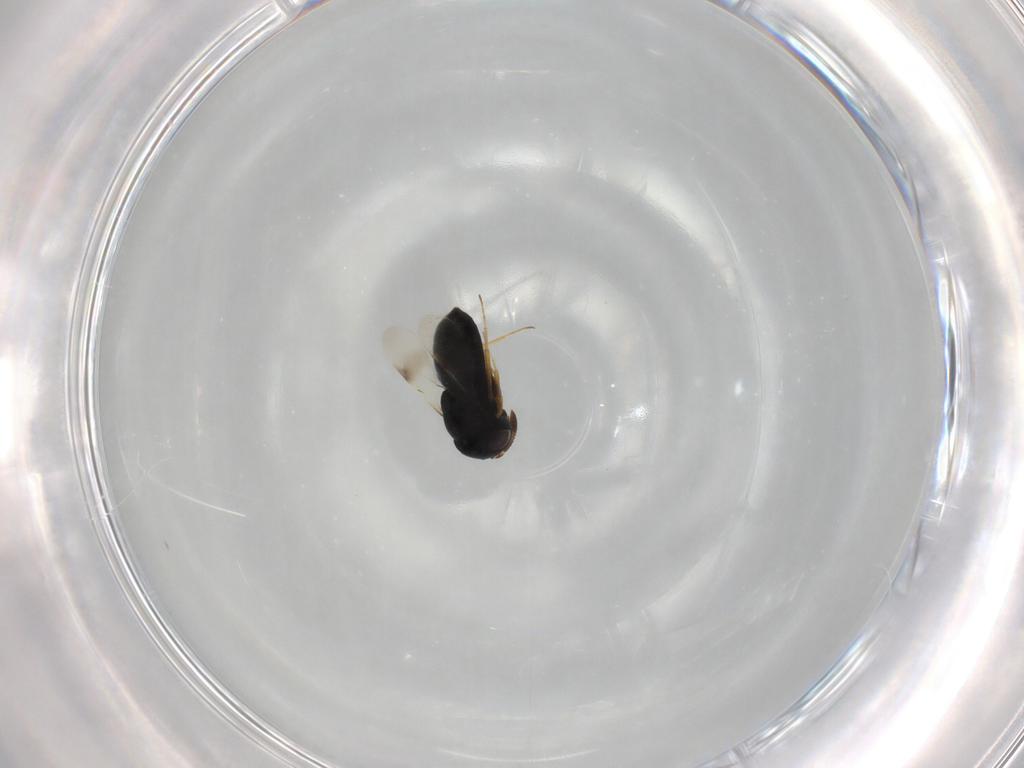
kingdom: Animalia
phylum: Arthropoda
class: Insecta
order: Hymenoptera
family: Scelionidae
